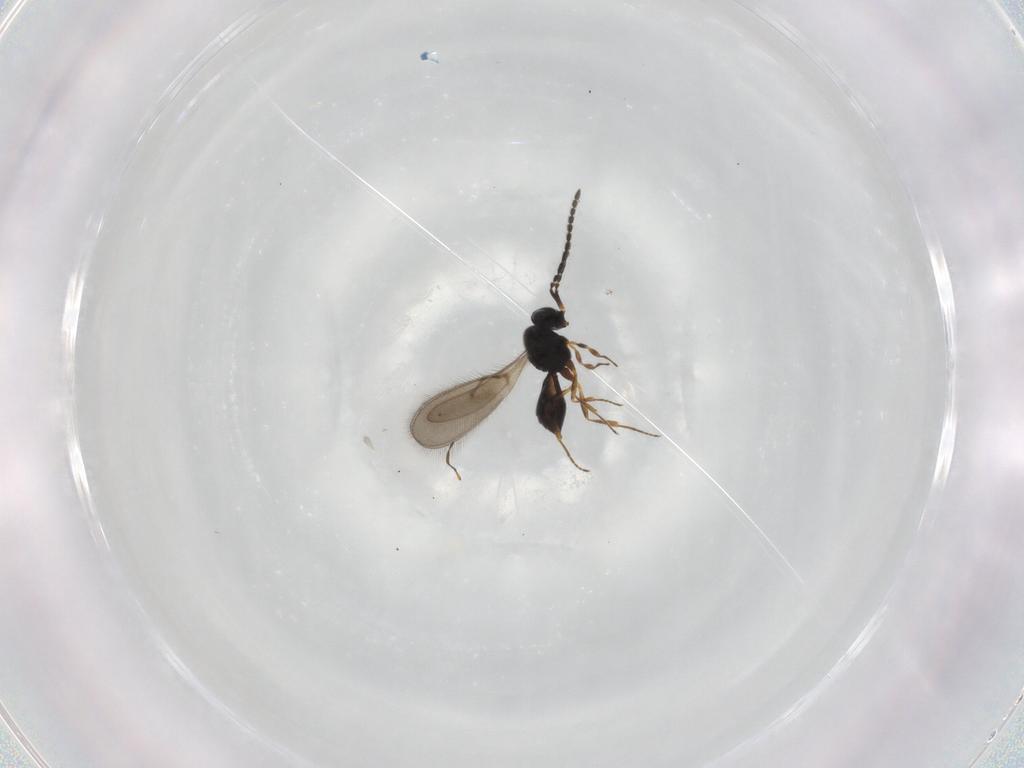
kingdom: Animalia
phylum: Arthropoda
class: Insecta
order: Hymenoptera
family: Scelionidae
